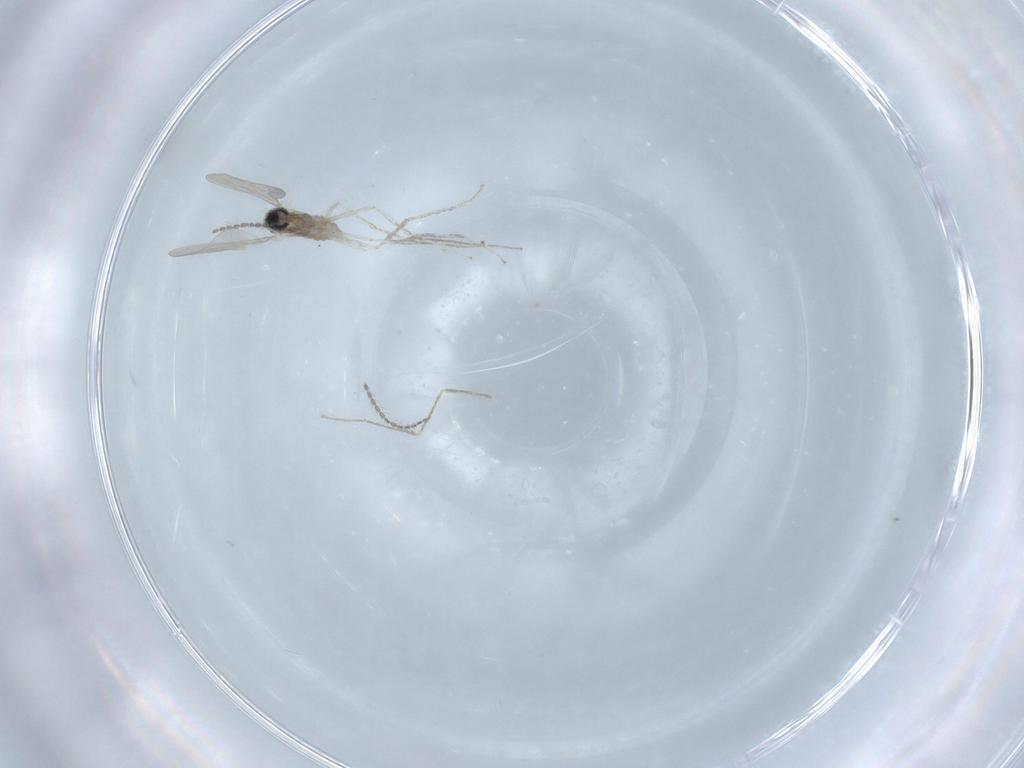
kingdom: Animalia
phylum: Arthropoda
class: Insecta
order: Diptera
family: Cecidomyiidae
